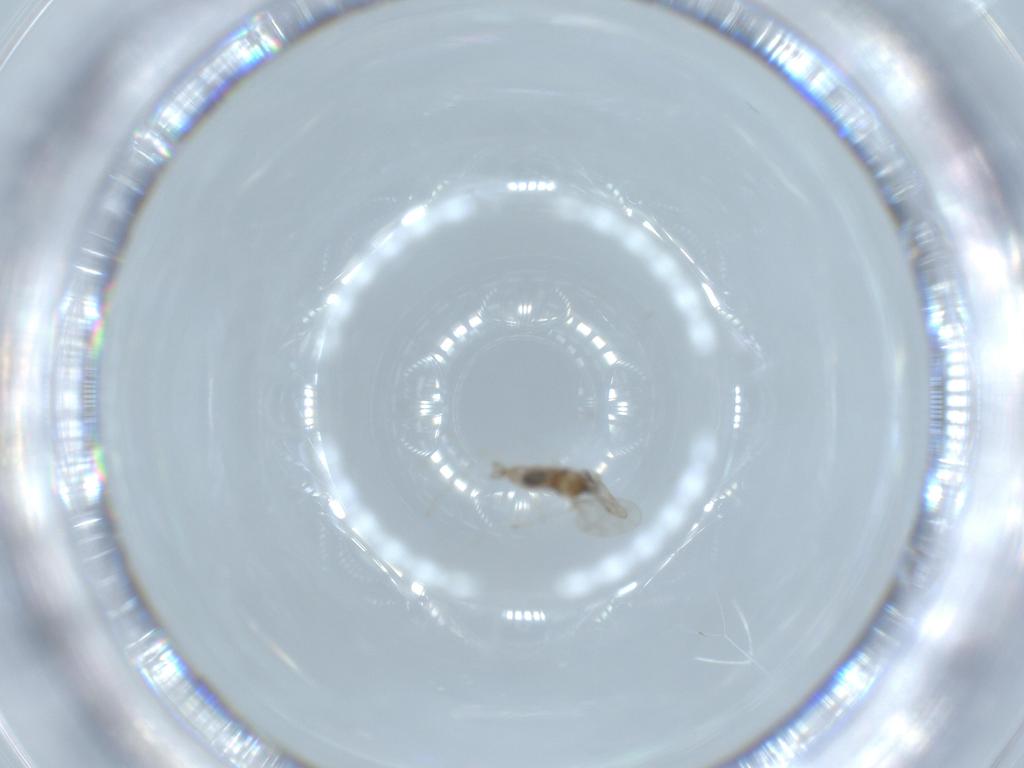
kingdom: Animalia
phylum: Arthropoda
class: Insecta
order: Diptera
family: Cecidomyiidae
